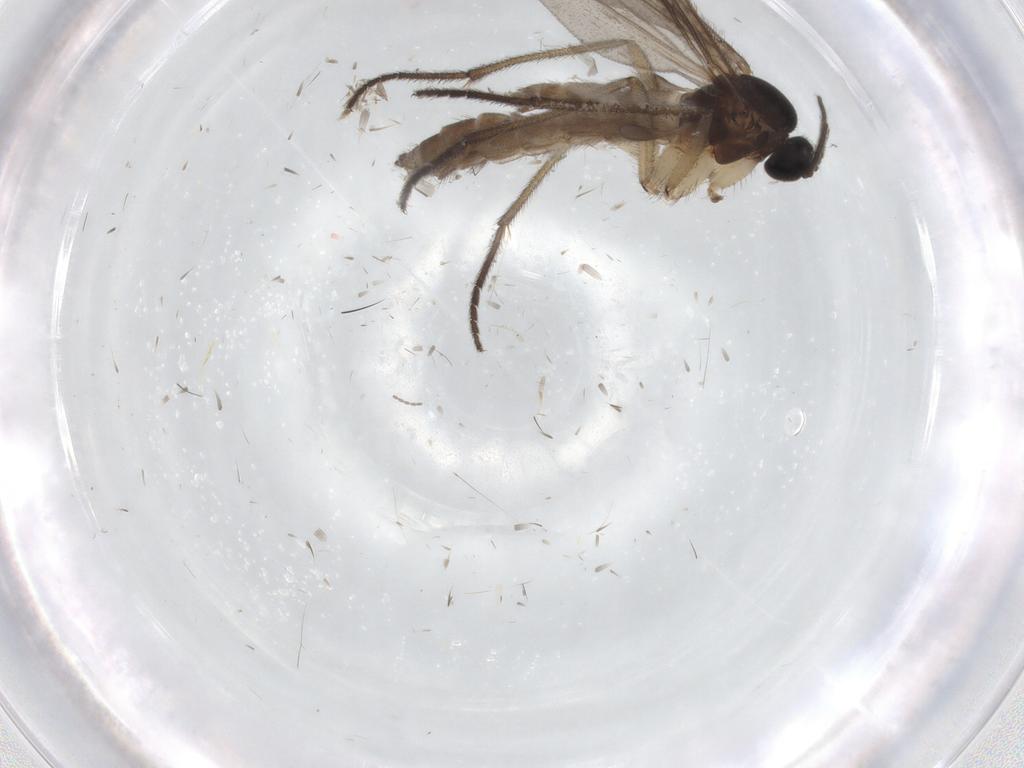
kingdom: Animalia
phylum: Arthropoda
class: Insecta
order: Diptera
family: Sciaridae
